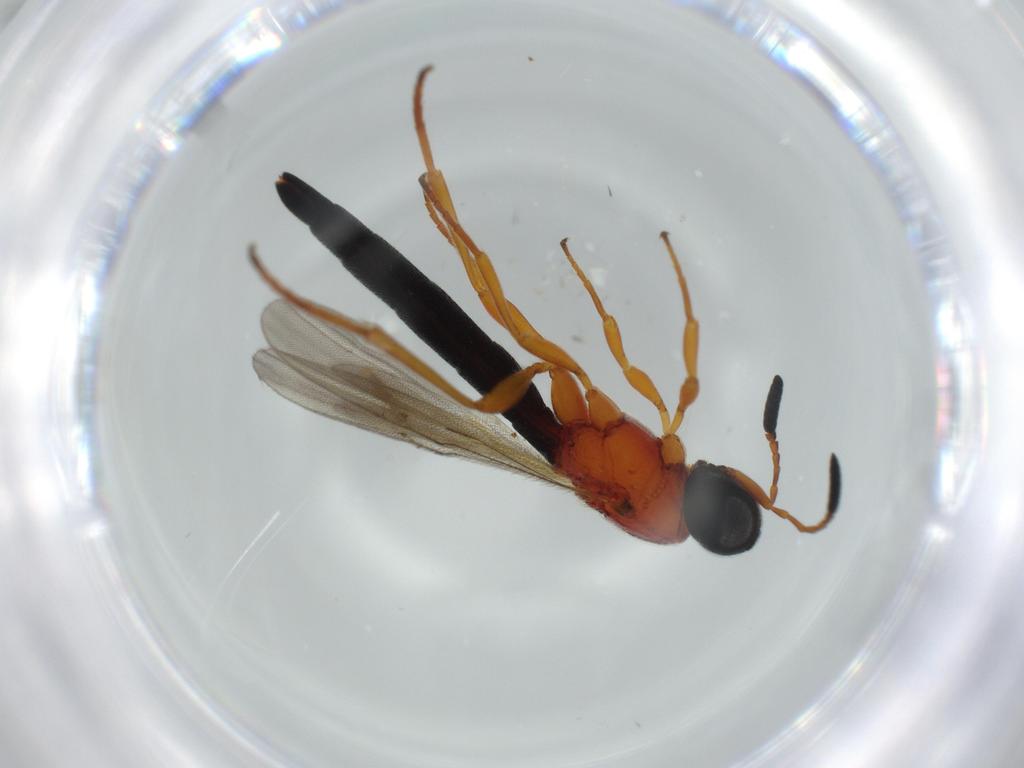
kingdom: Animalia
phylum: Arthropoda
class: Insecta
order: Hymenoptera
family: Scelionidae
